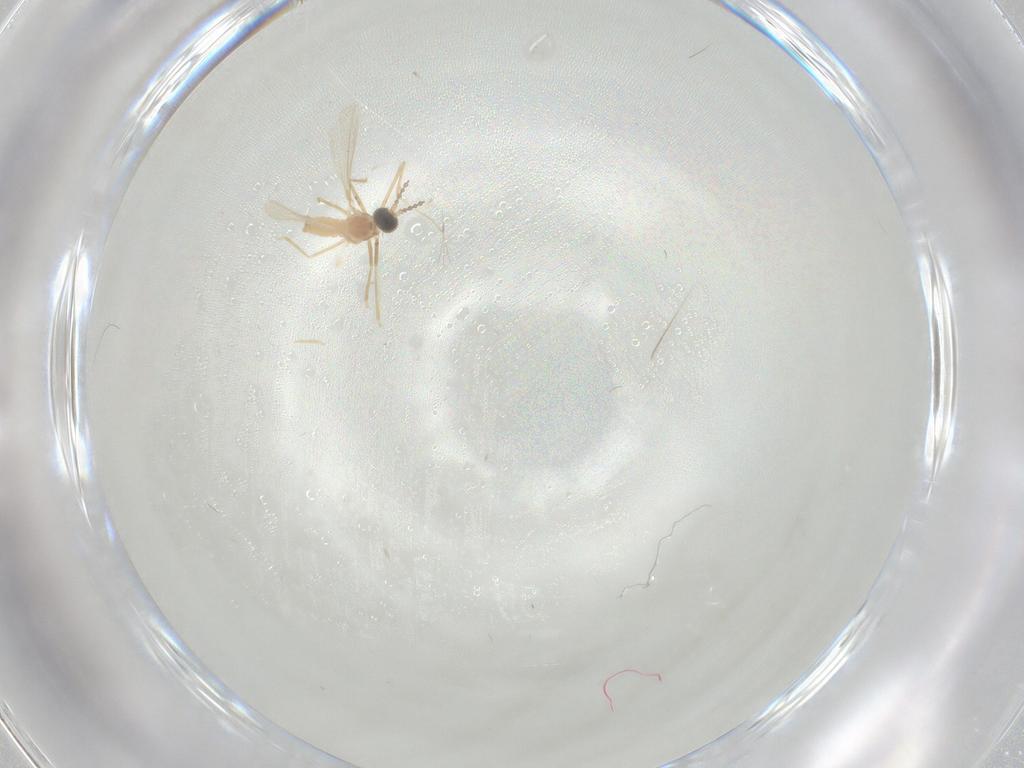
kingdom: Animalia
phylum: Arthropoda
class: Insecta
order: Diptera
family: Cecidomyiidae
